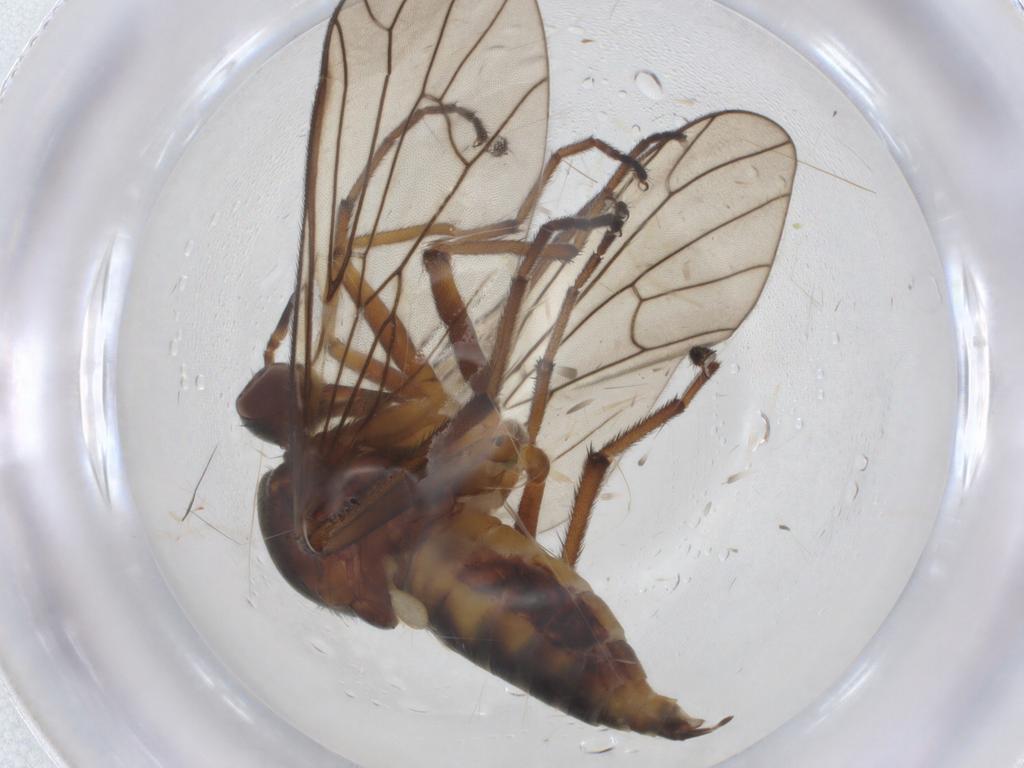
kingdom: Animalia
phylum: Arthropoda
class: Insecta
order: Diptera
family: Empididae
